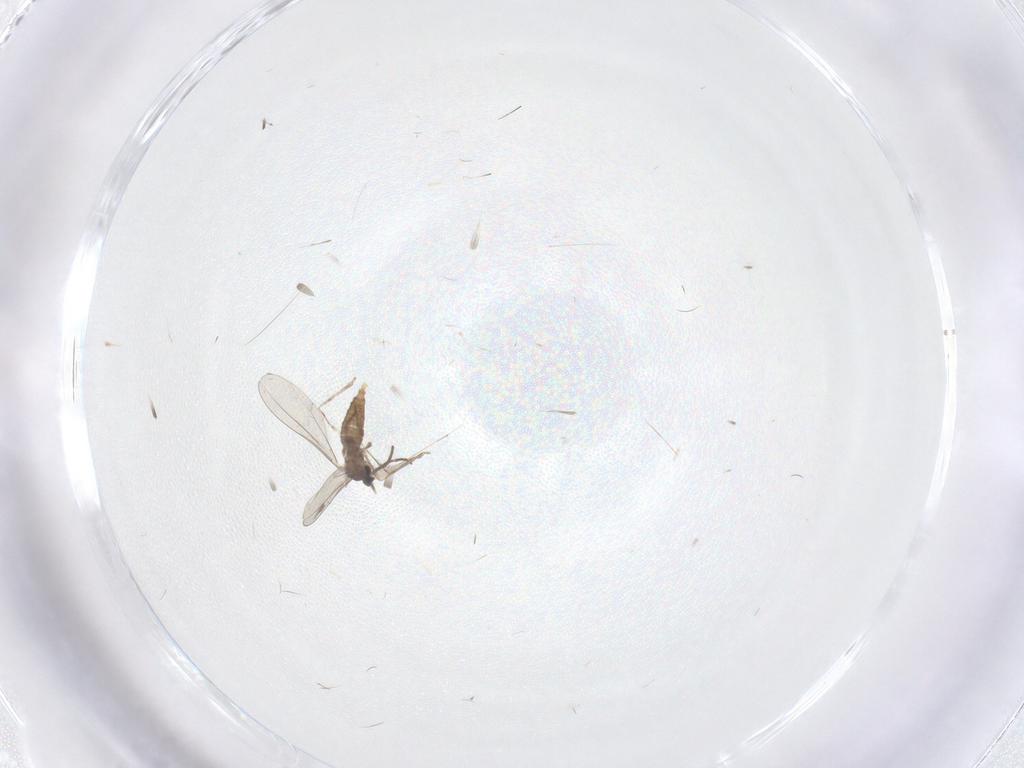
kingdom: Animalia
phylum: Arthropoda
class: Insecta
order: Diptera
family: Cecidomyiidae
